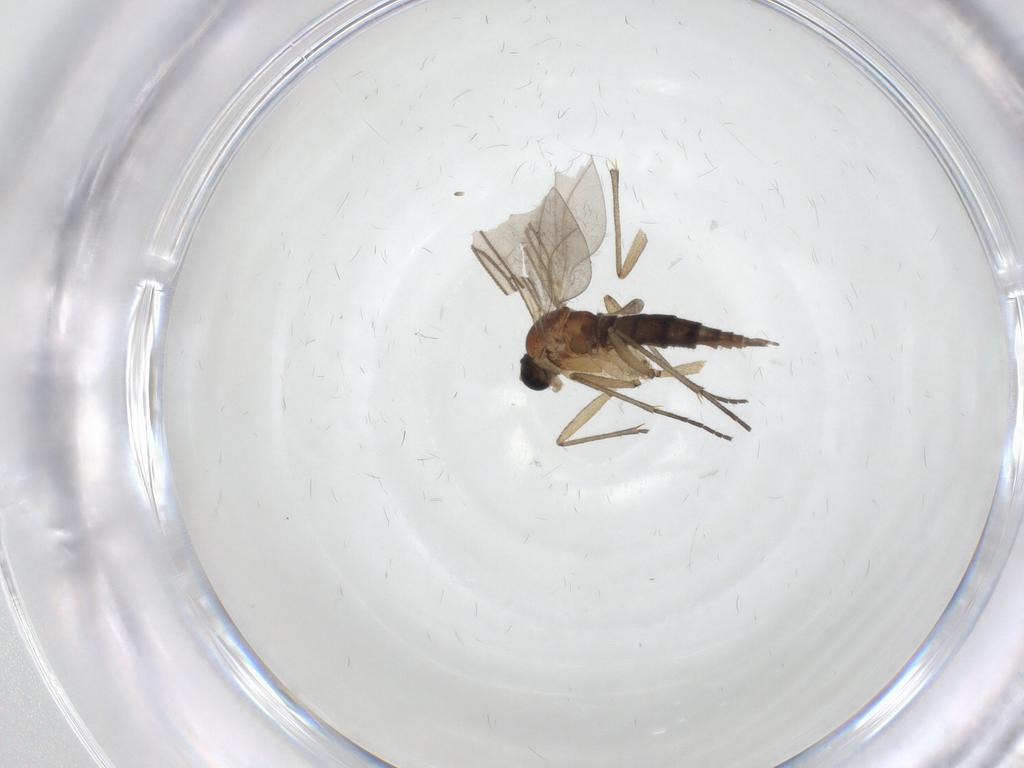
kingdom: Animalia
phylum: Arthropoda
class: Insecta
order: Diptera
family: Sciaridae
